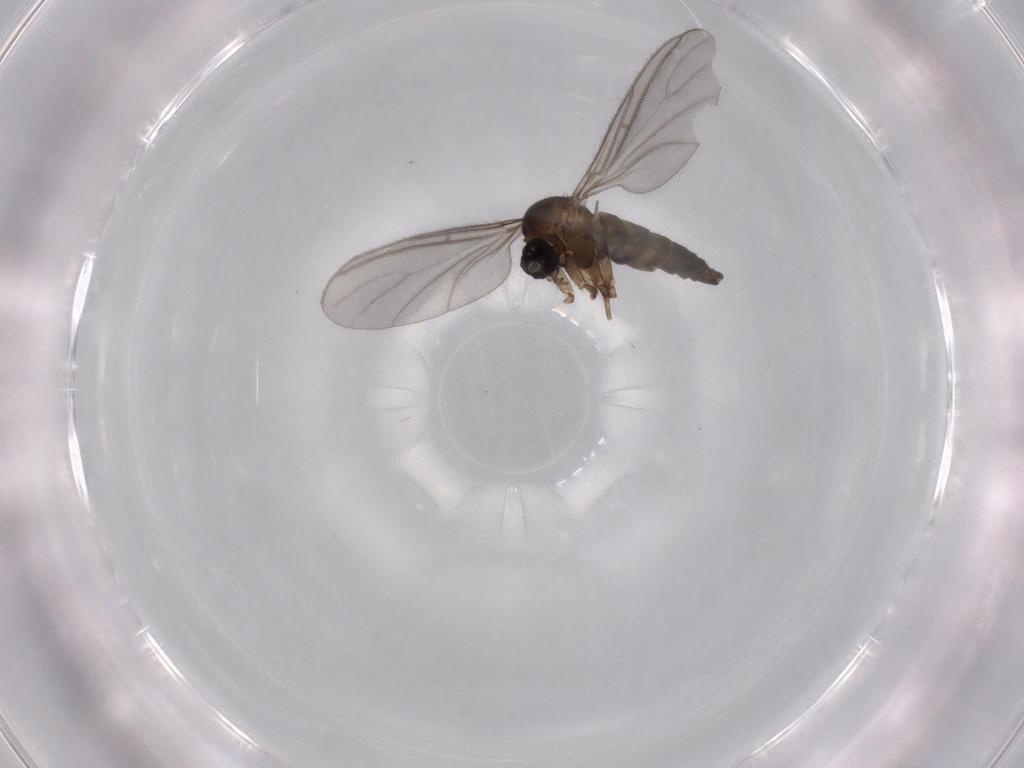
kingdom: Animalia
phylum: Arthropoda
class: Insecta
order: Diptera
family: Sciaridae
